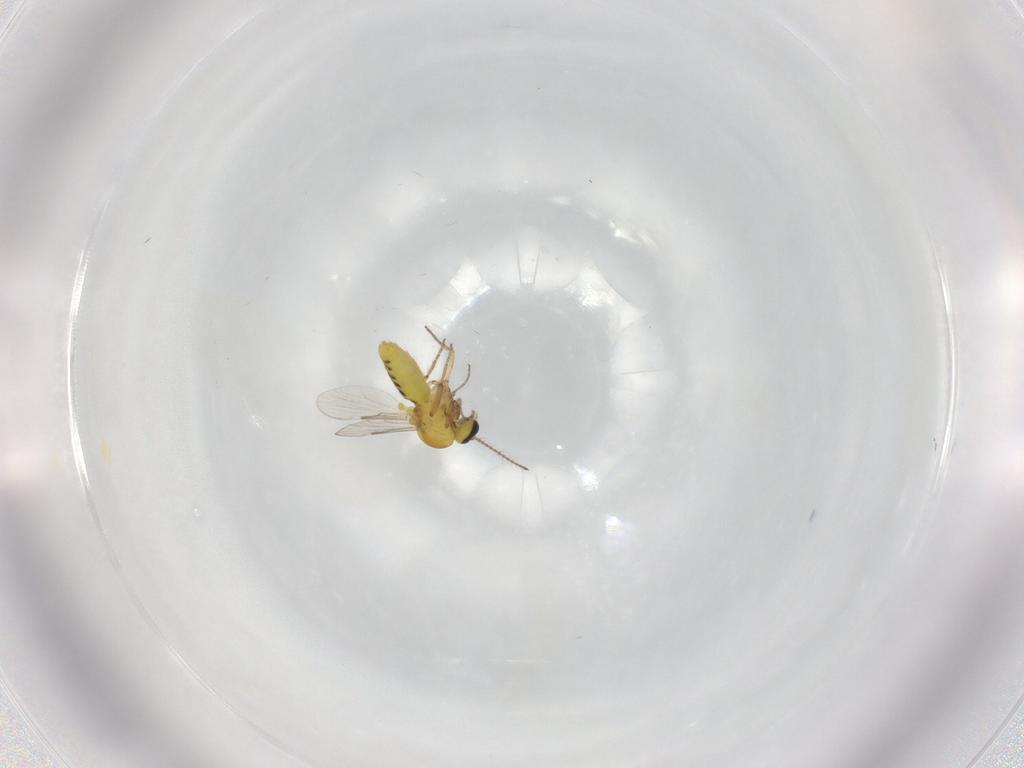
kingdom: Animalia
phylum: Arthropoda
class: Insecta
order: Diptera
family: Ceratopogonidae
